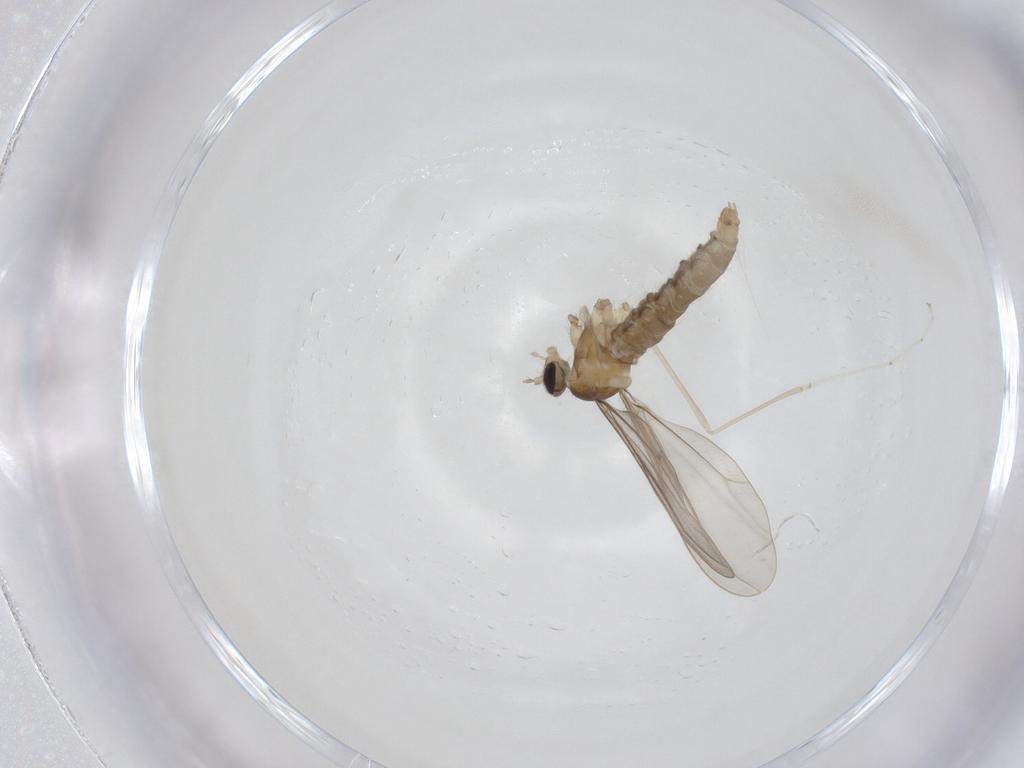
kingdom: Animalia
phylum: Arthropoda
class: Insecta
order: Diptera
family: Cecidomyiidae
